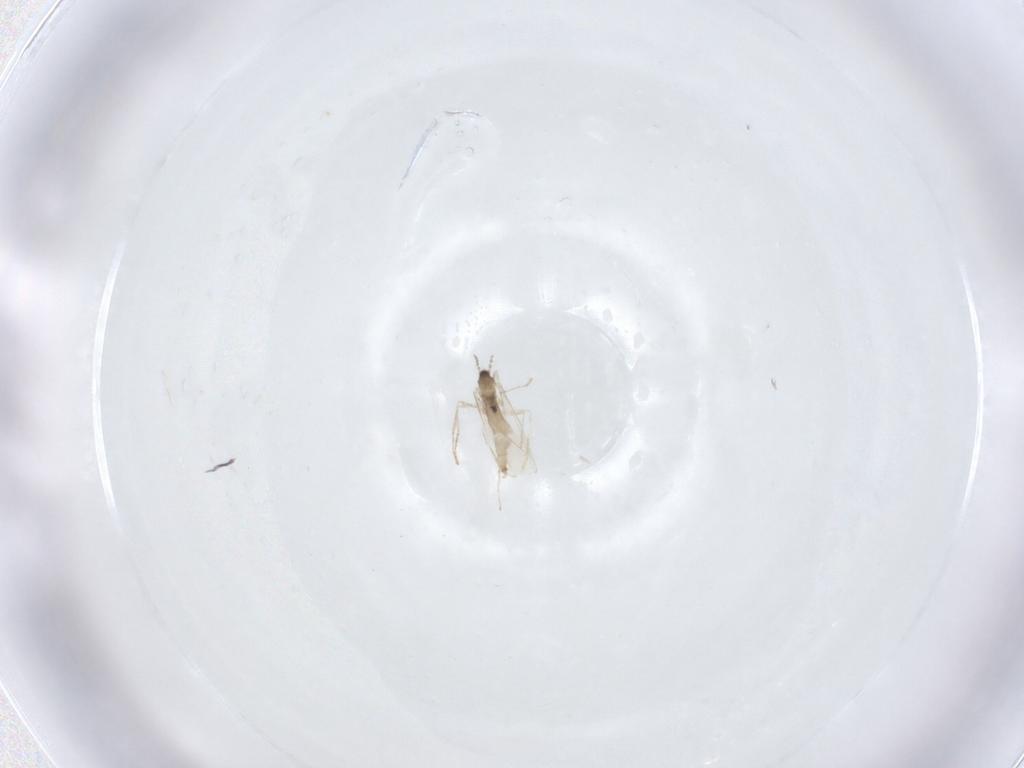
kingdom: Animalia
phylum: Arthropoda
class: Insecta
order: Diptera
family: Cecidomyiidae
